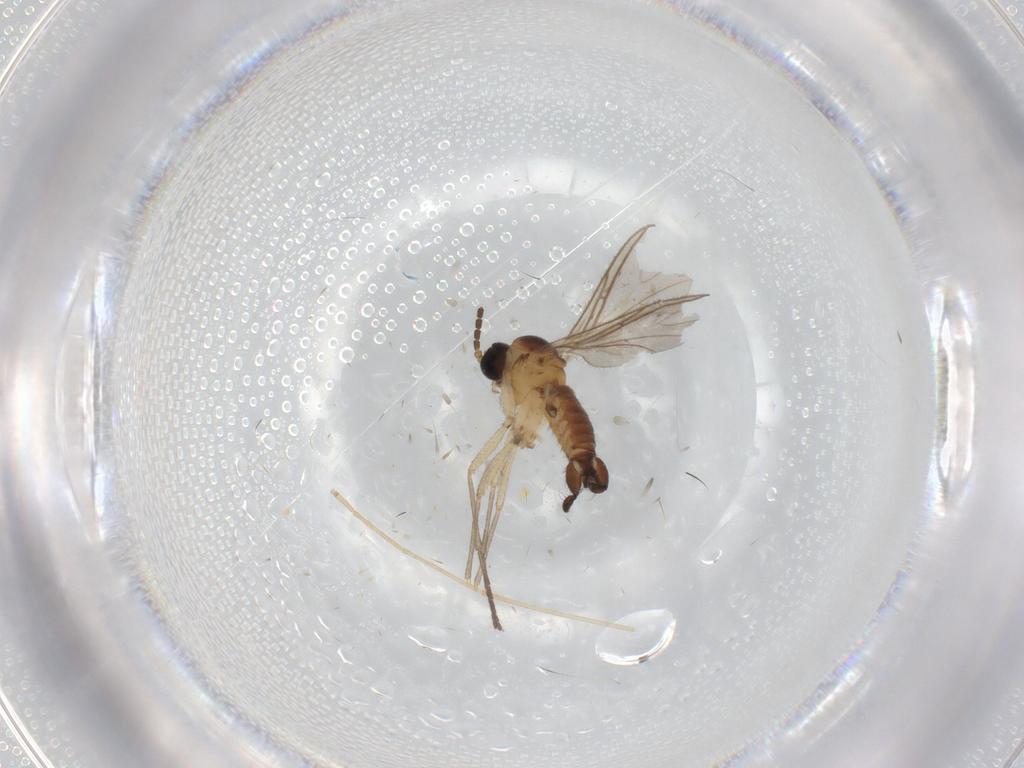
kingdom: Animalia
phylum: Arthropoda
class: Insecta
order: Diptera
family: Sciaridae
